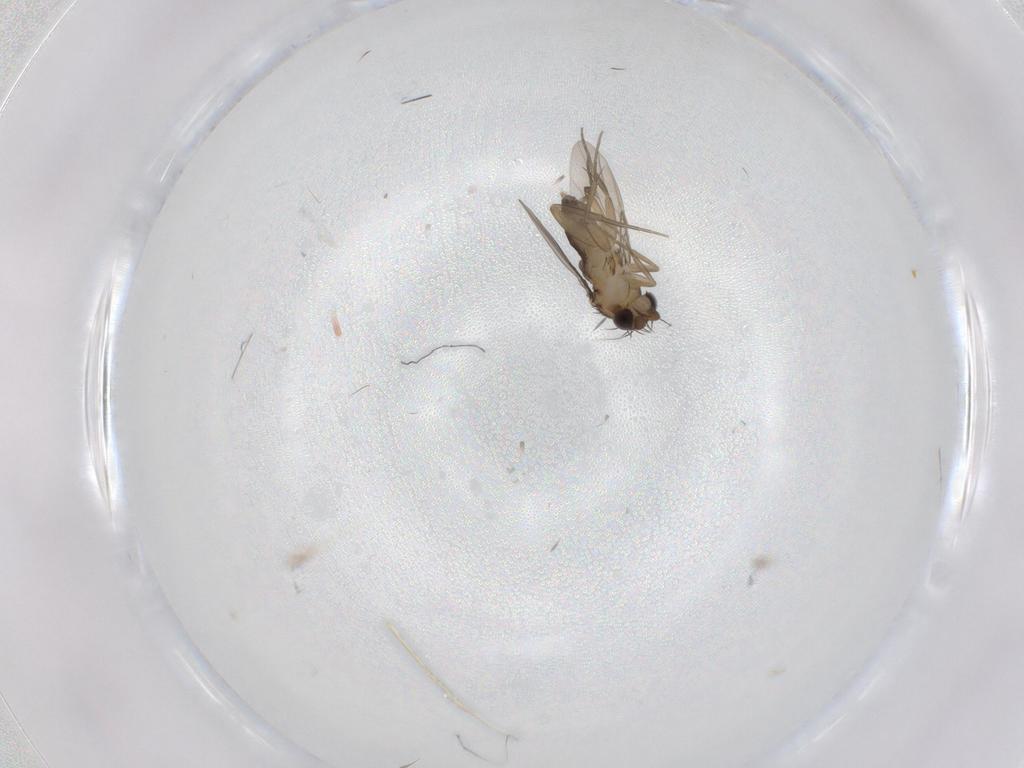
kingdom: Animalia
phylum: Arthropoda
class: Insecta
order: Diptera
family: Phoridae
